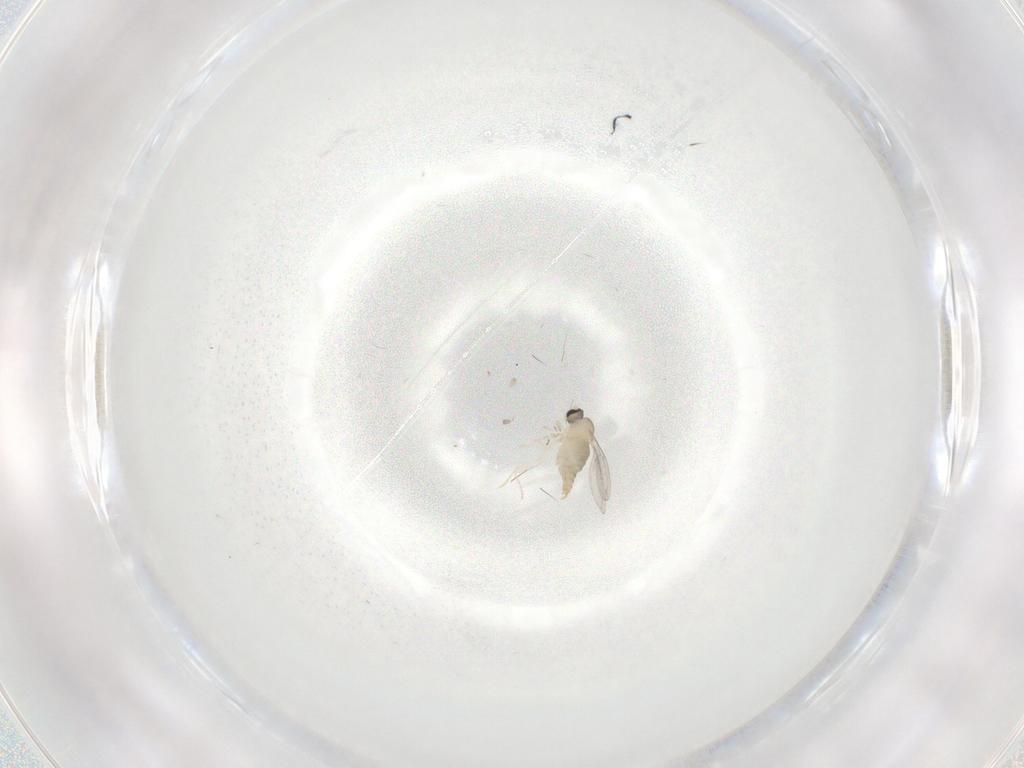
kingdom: Animalia
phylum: Arthropoda
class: Insecta
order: Diptera
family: Cecidomyiidae
